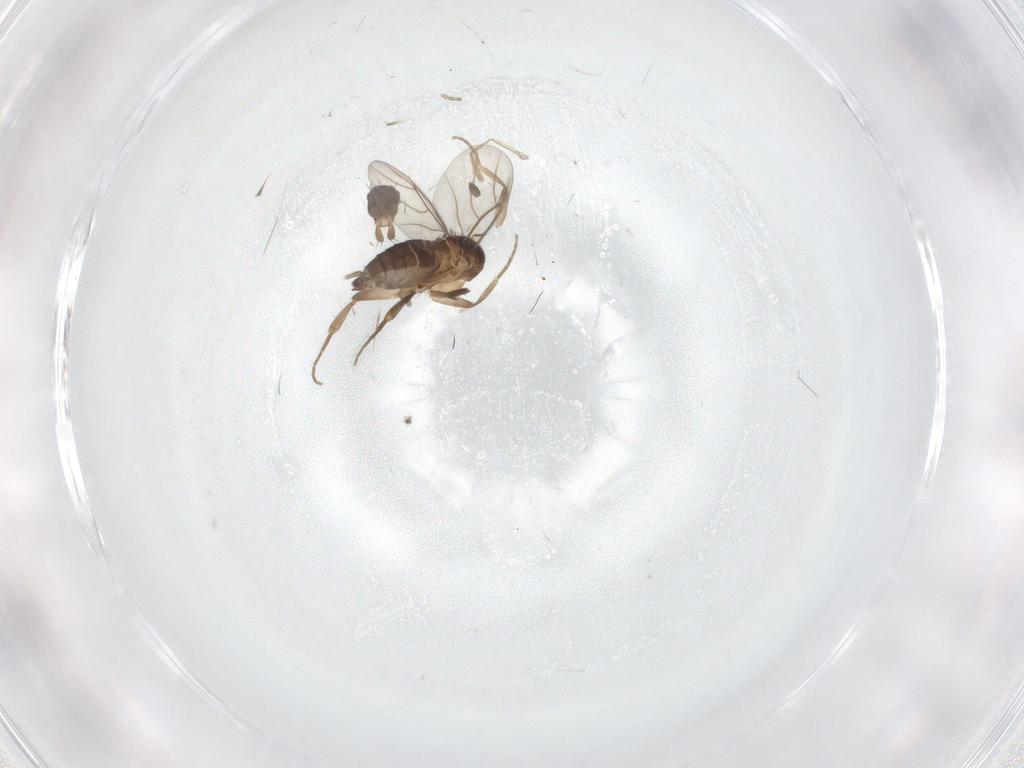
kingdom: Animalia
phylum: Arthropoda
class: Insecta
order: Diptera
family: Phoridae
